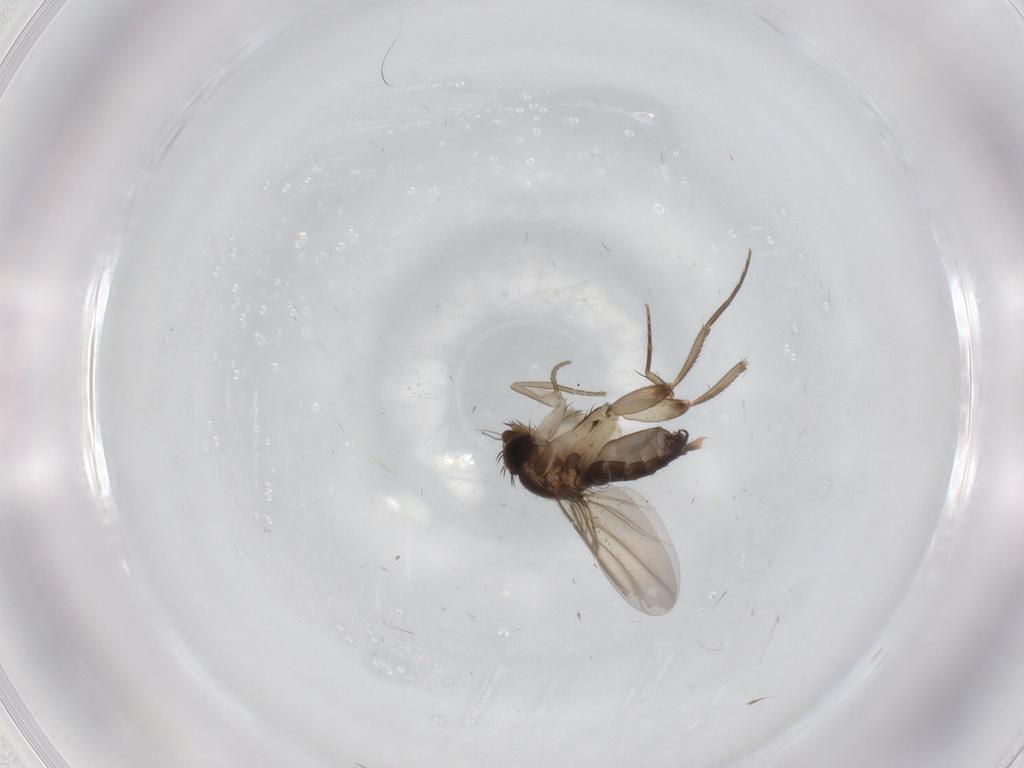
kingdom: Animalia
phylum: Arthropoda
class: Insecta
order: Diptera
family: Phoridae
